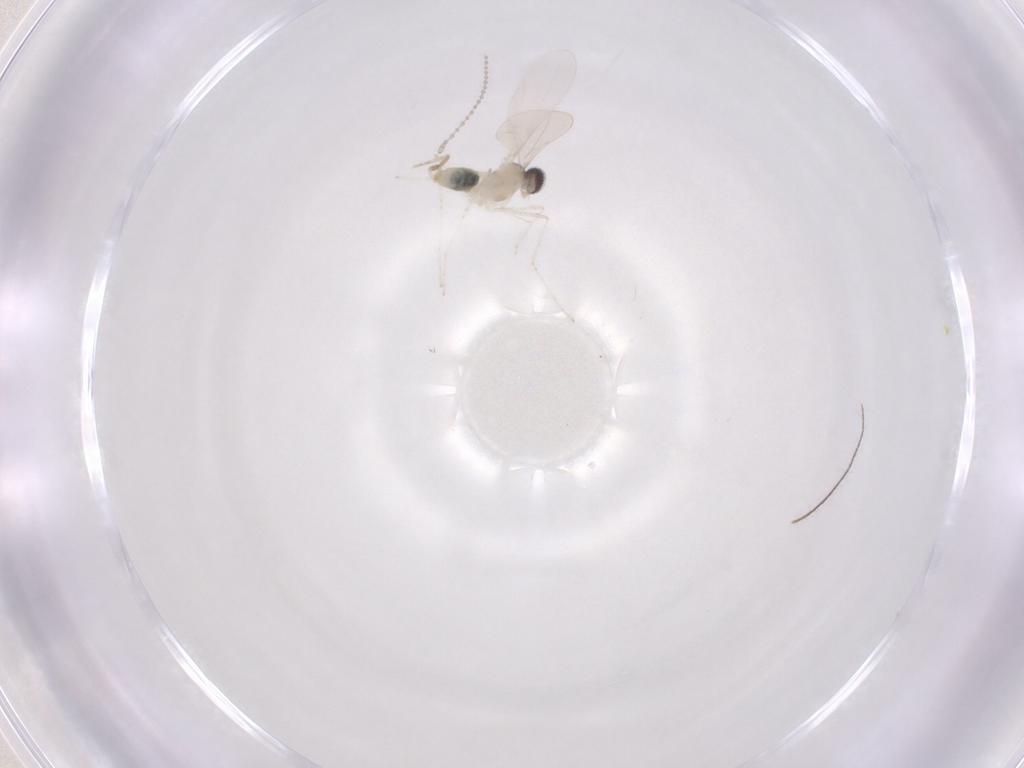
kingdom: Animalia
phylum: Arthropoda
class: Insecta
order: Diptera
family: Cecidomyiidae
